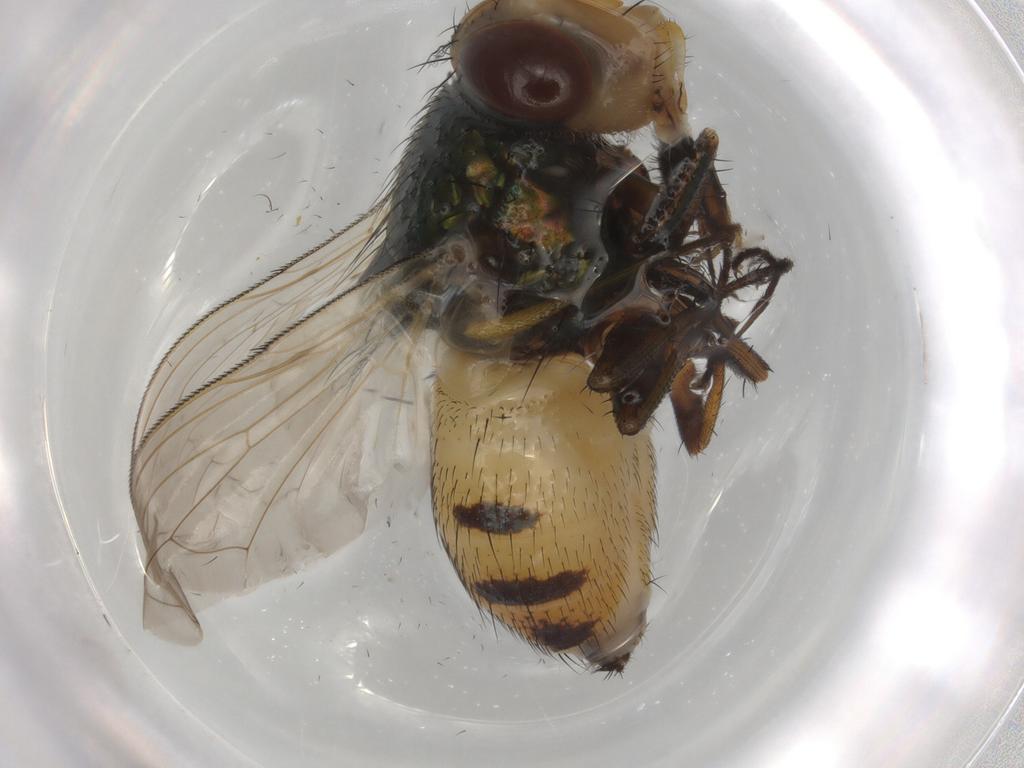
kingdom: Animalia
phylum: Arthropoda
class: Insecta
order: Diptera
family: Calliphoridae
